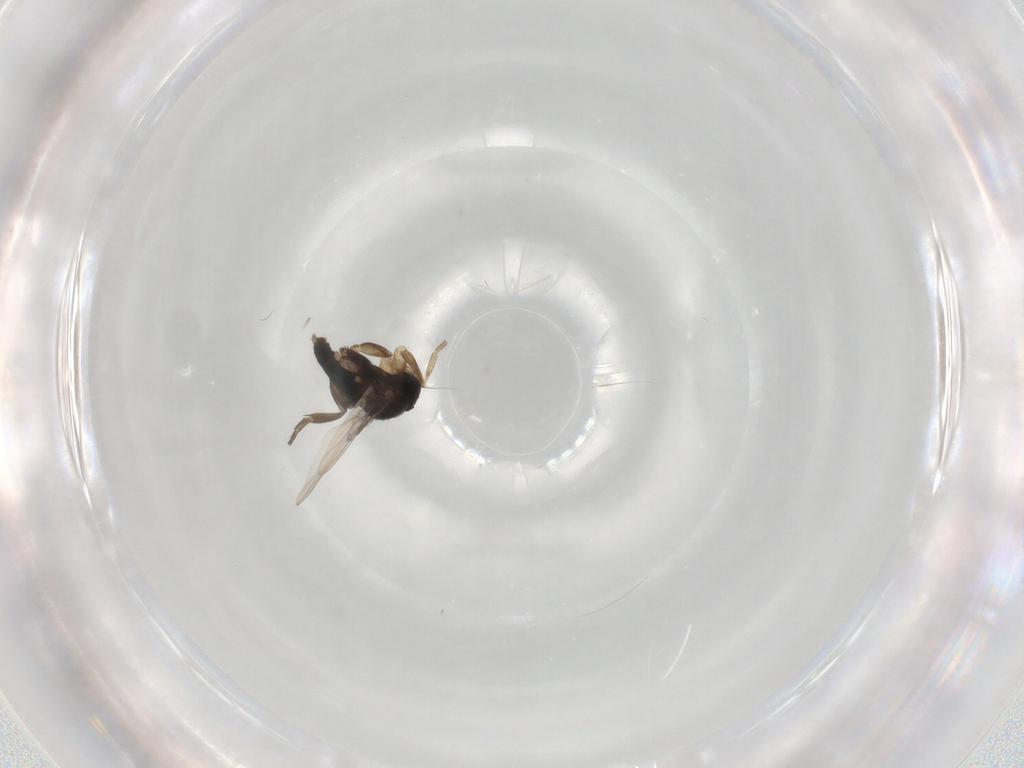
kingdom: Animalia
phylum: Arthropoda
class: Insecta
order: Diptera
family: Phoridae
